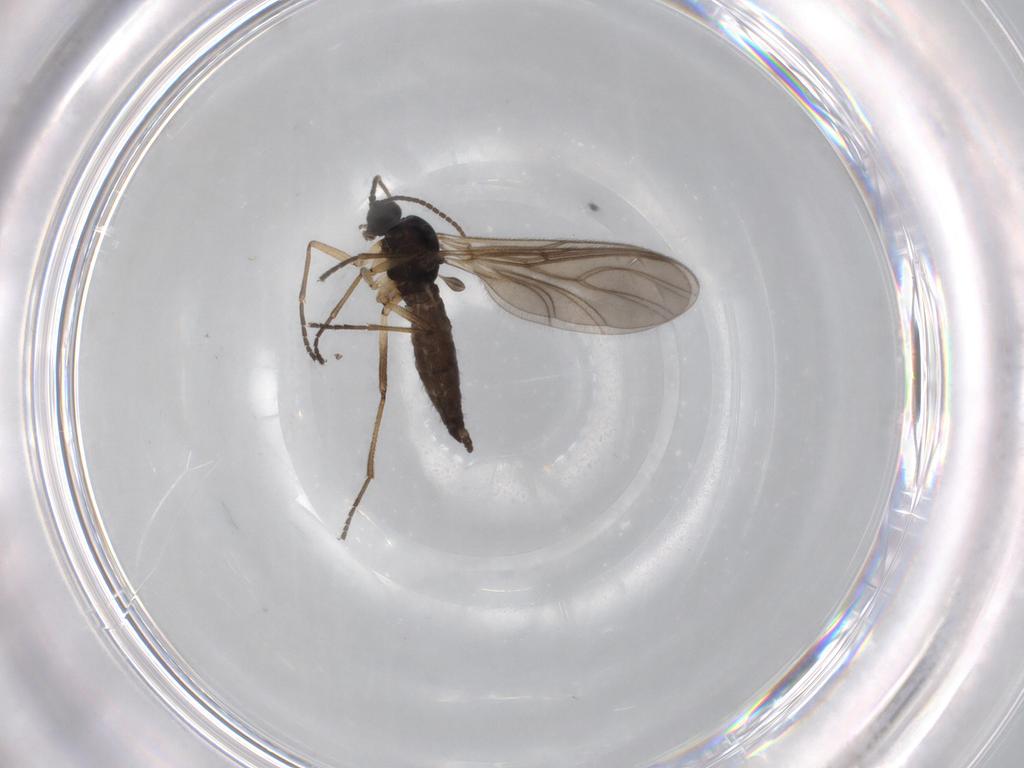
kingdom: Animalia
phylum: Arthropoda
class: Insecta
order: Diptera
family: Sciaridae
